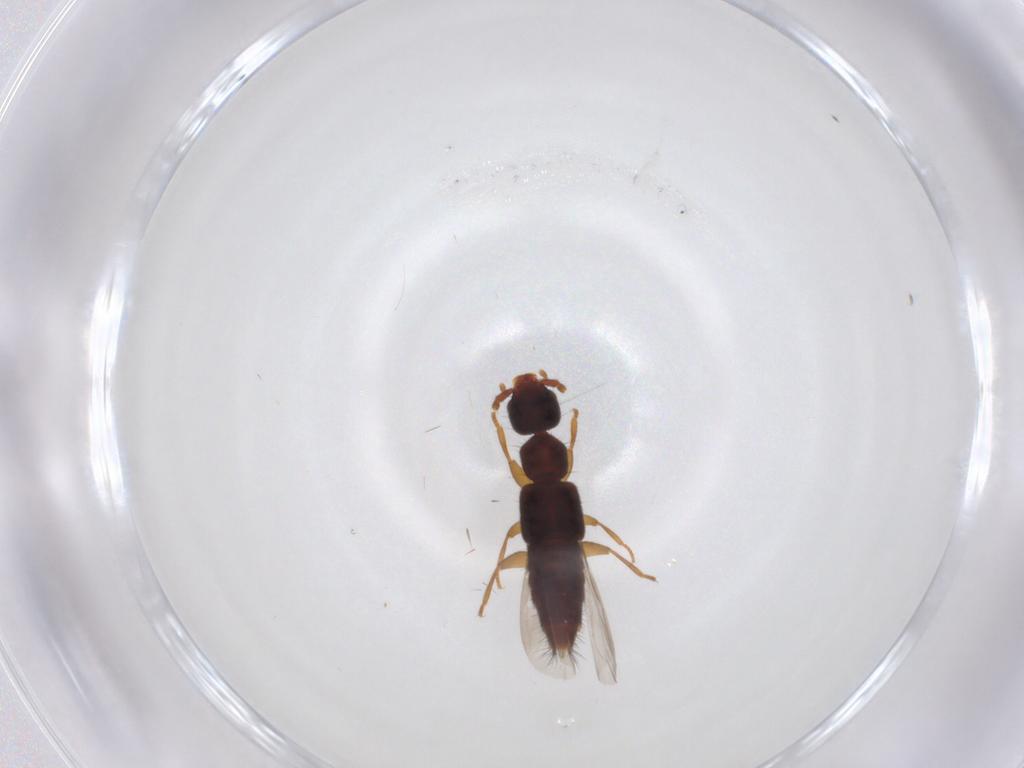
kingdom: Animalia
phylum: Arthropoda
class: Insecta
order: Coleoptera
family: Staphylinidae
